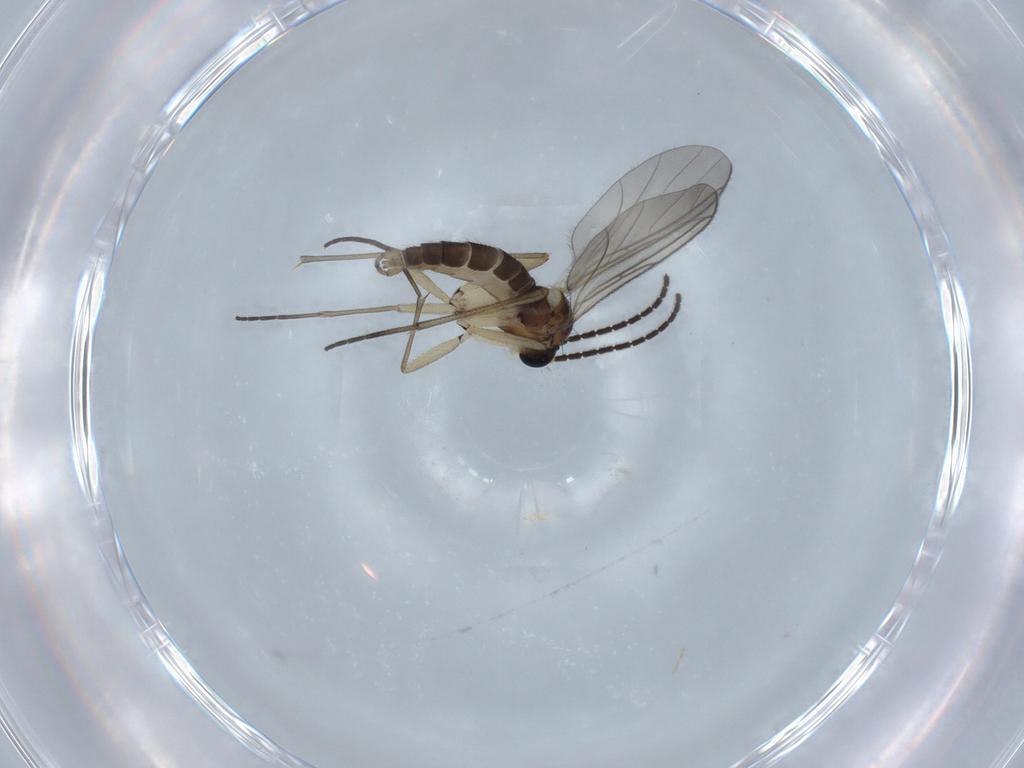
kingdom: Animalia
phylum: Arthropoda
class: Insecta
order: Diptera
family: Sciaridae
